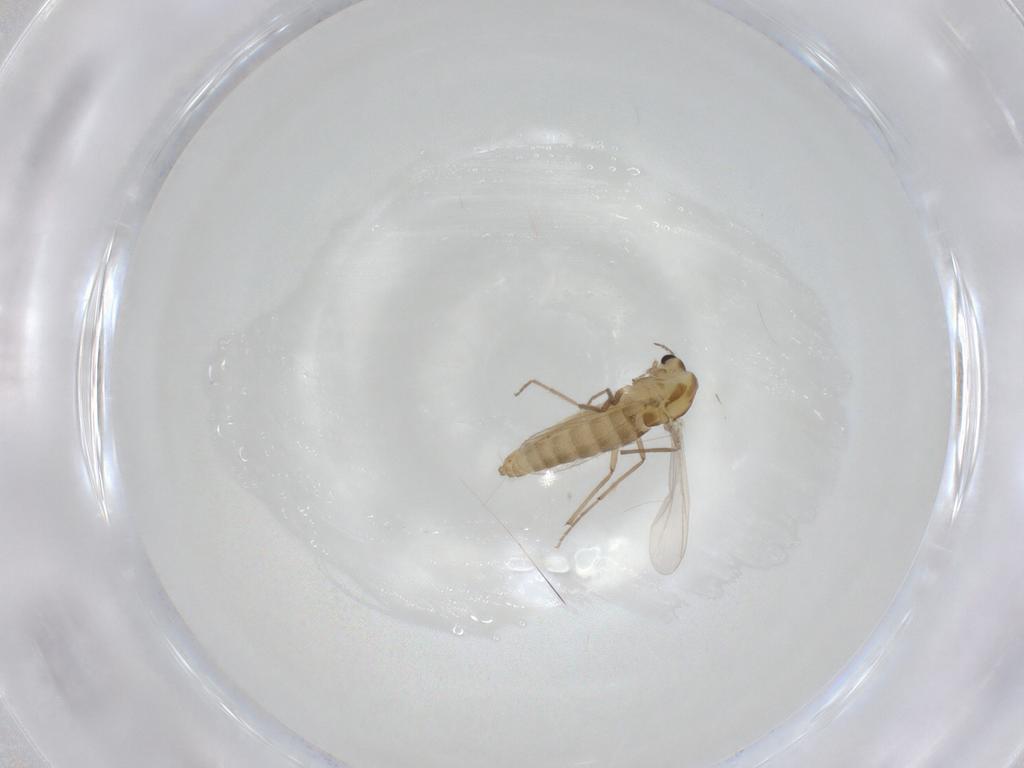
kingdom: Animalia
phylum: Arthropoda
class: Insecta
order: Diptera
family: Chironomidae
